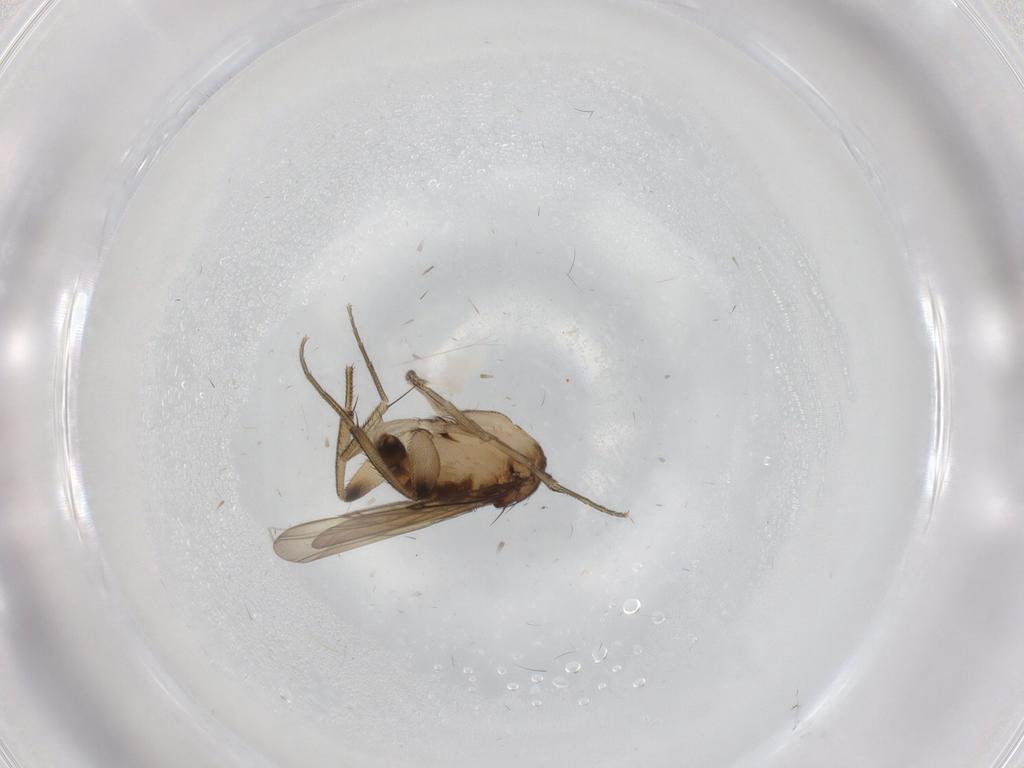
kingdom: Animalia
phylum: Arthropoda
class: Insecta
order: Diptera
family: Phoridae
